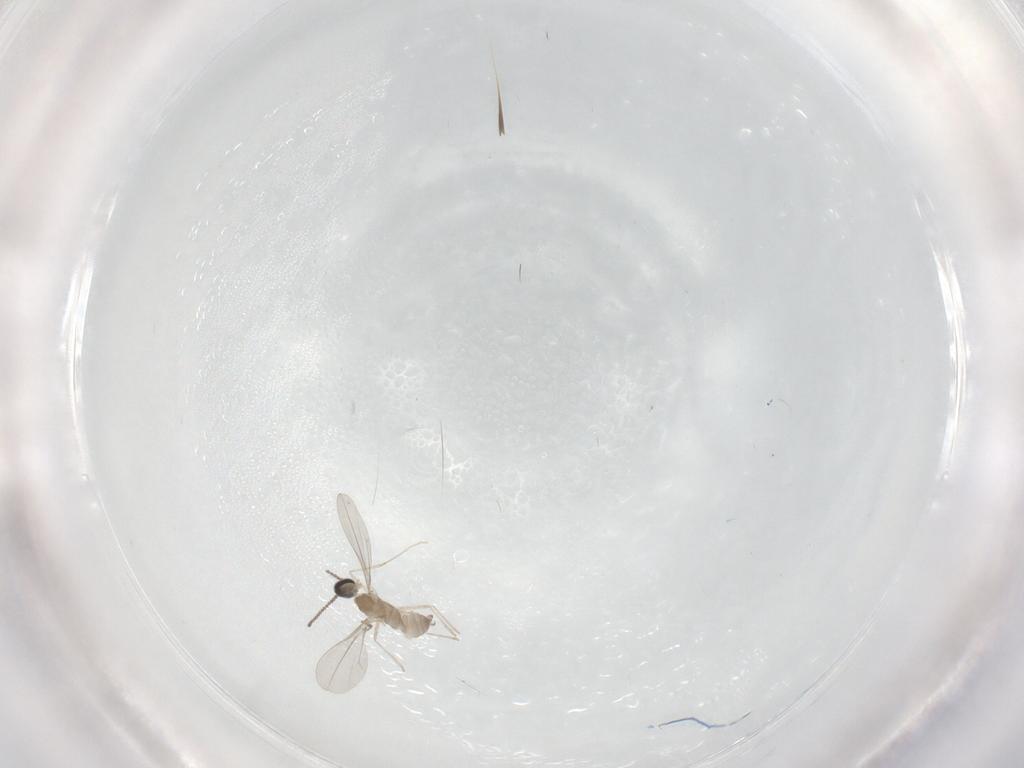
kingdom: Animalia
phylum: Arthropoda
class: Insecta
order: Diptera
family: Cecidomyiidae
